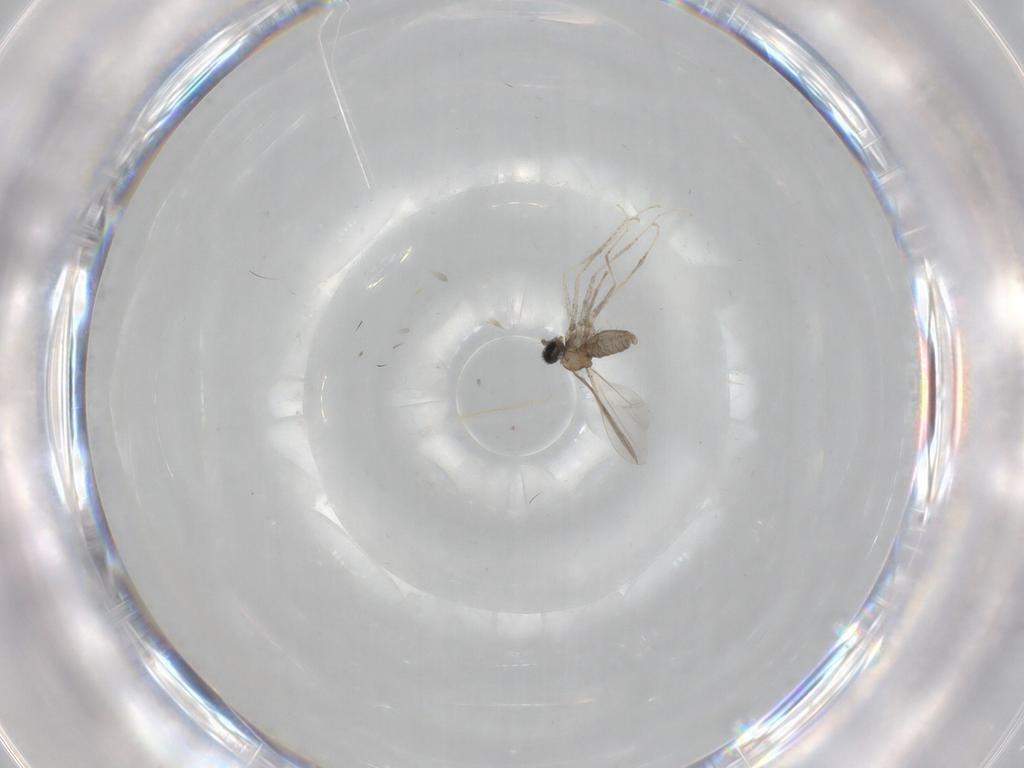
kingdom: Animalia
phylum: Arthropoda
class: Insecta
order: Diptera
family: Cecidomyiidae
